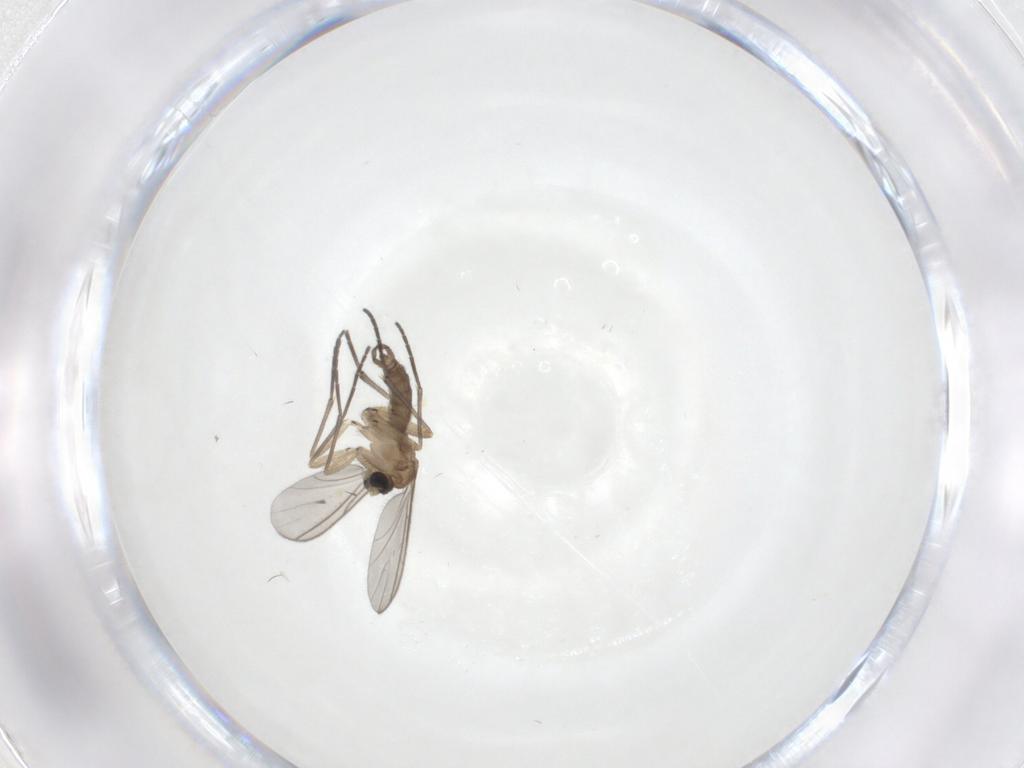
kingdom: Animalia
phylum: Arthropoda
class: Insecta
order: Diptera
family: Sciaridae
